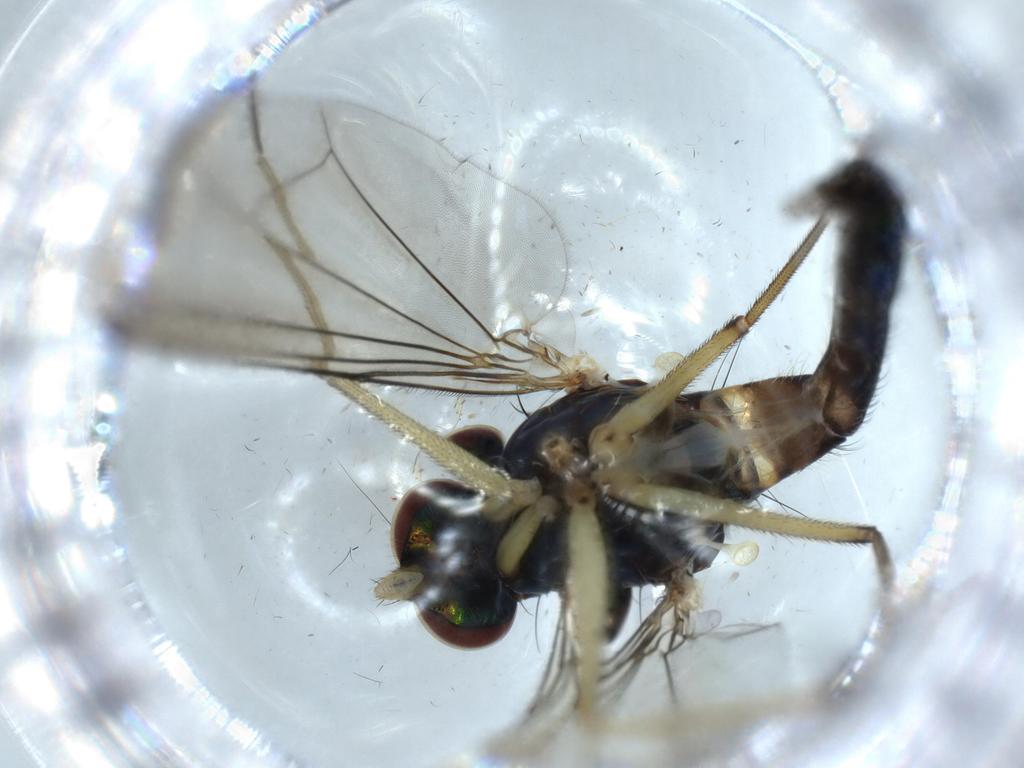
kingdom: Animalia
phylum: Arthropoda
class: Insecta
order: Diptera
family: Dolichopodidae
